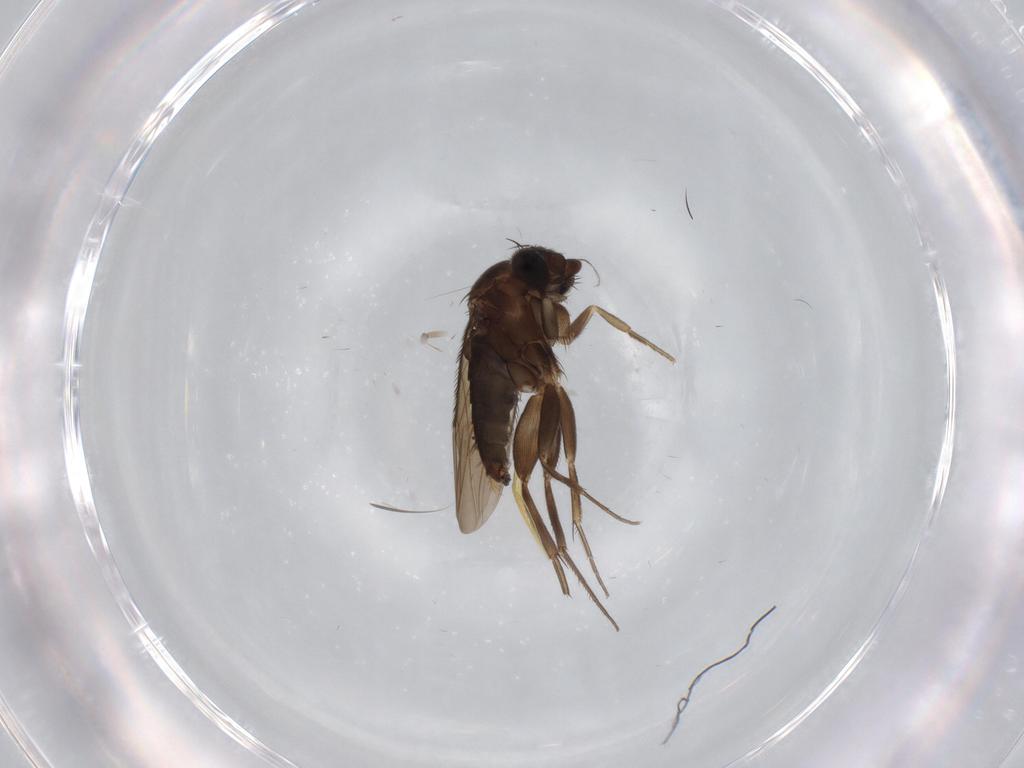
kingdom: Animalia
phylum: Arthropoda
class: Insecta
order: Diptera
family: Phoridae
